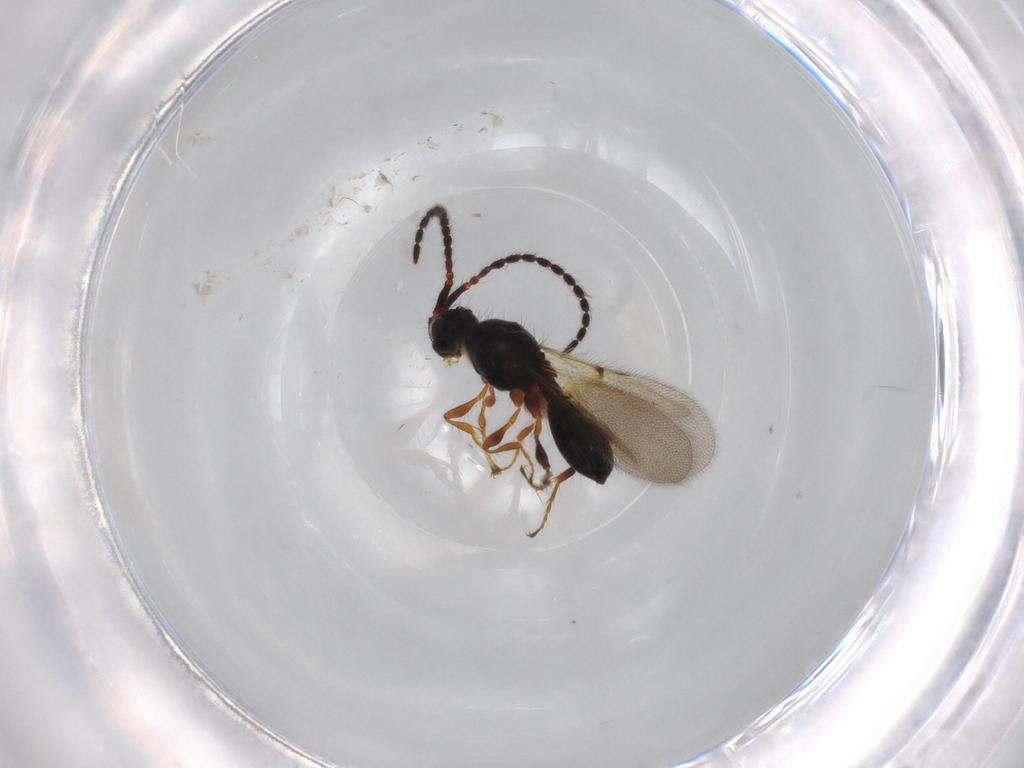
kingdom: Animalia
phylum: Arthropoda
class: Insecta
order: Hymenoptera
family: Diapriidae
